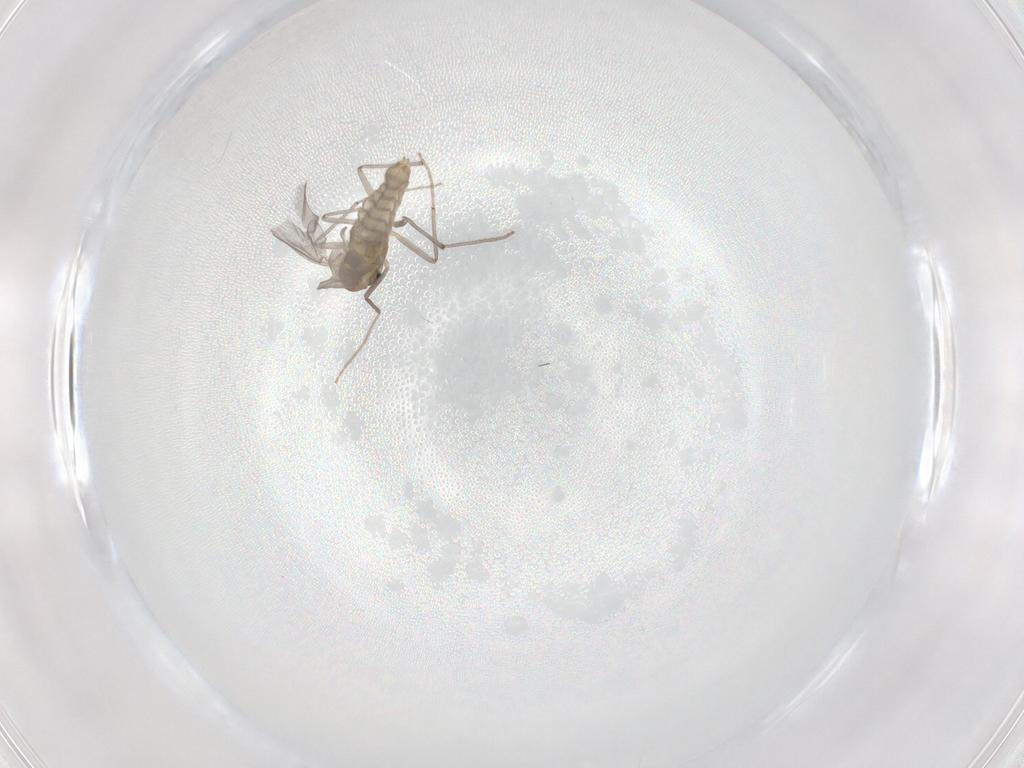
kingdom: Animalia
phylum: Arthropoda
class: Insecta
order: Diptera
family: Chironomidae
